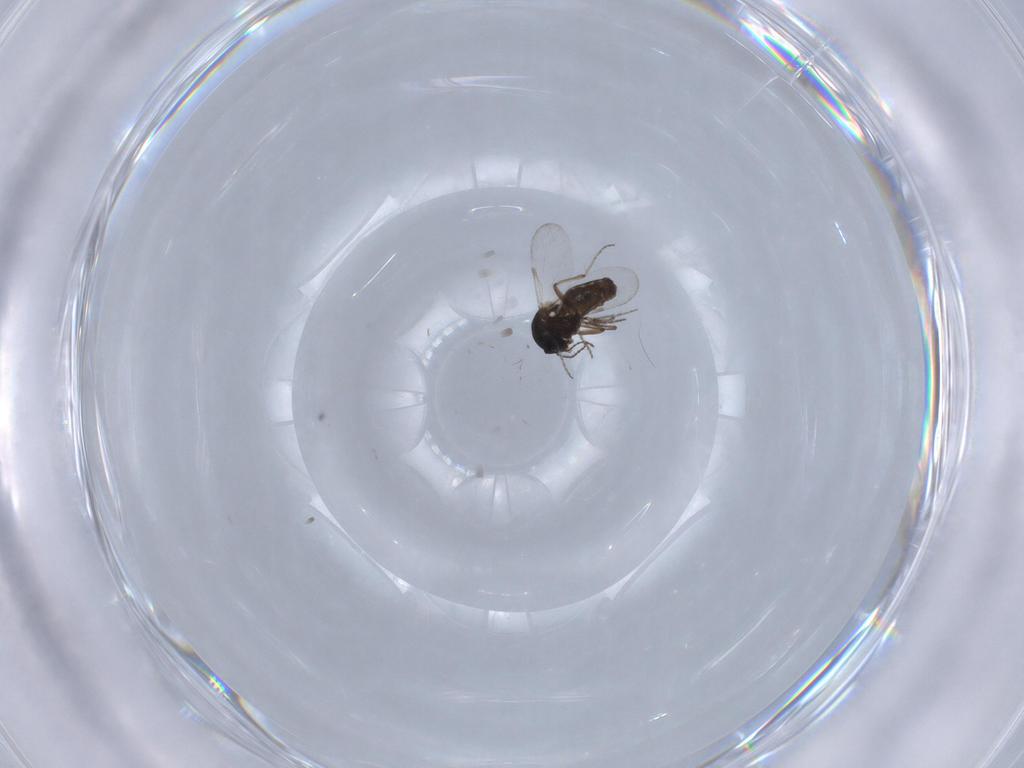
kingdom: Animalia
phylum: Arthropoda
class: Insecta
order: Diptera
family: Ceratopogonidae
